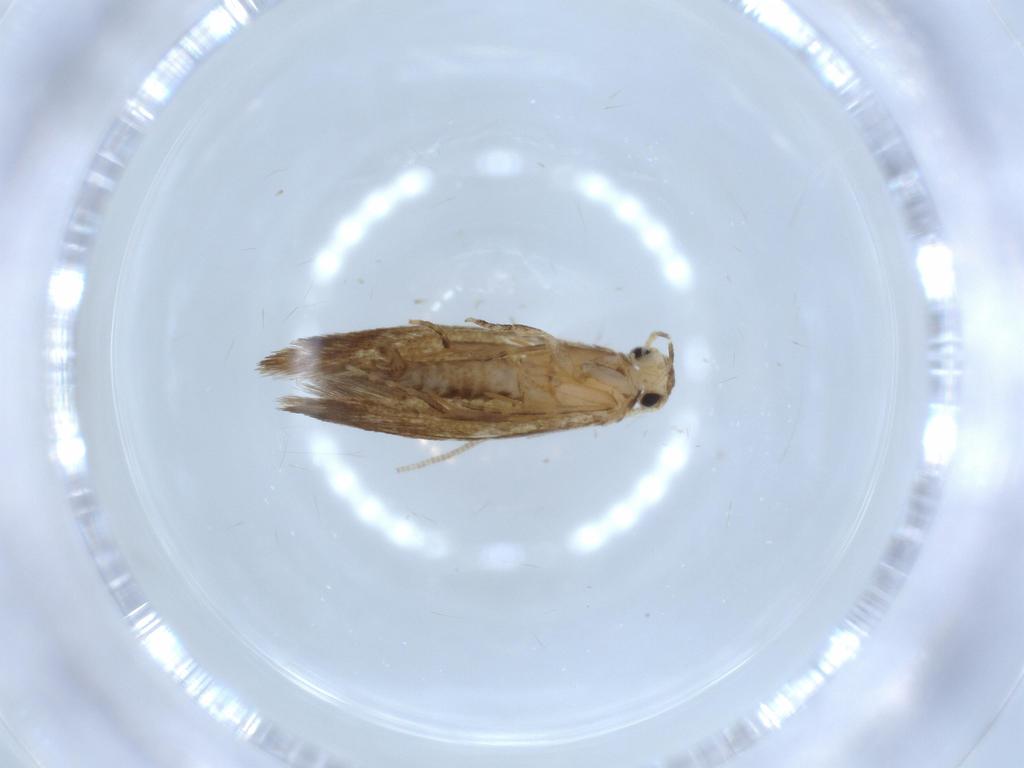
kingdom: Animalia
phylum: Arthropoda
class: Insecta
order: Lepidoptera
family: Tineidae
